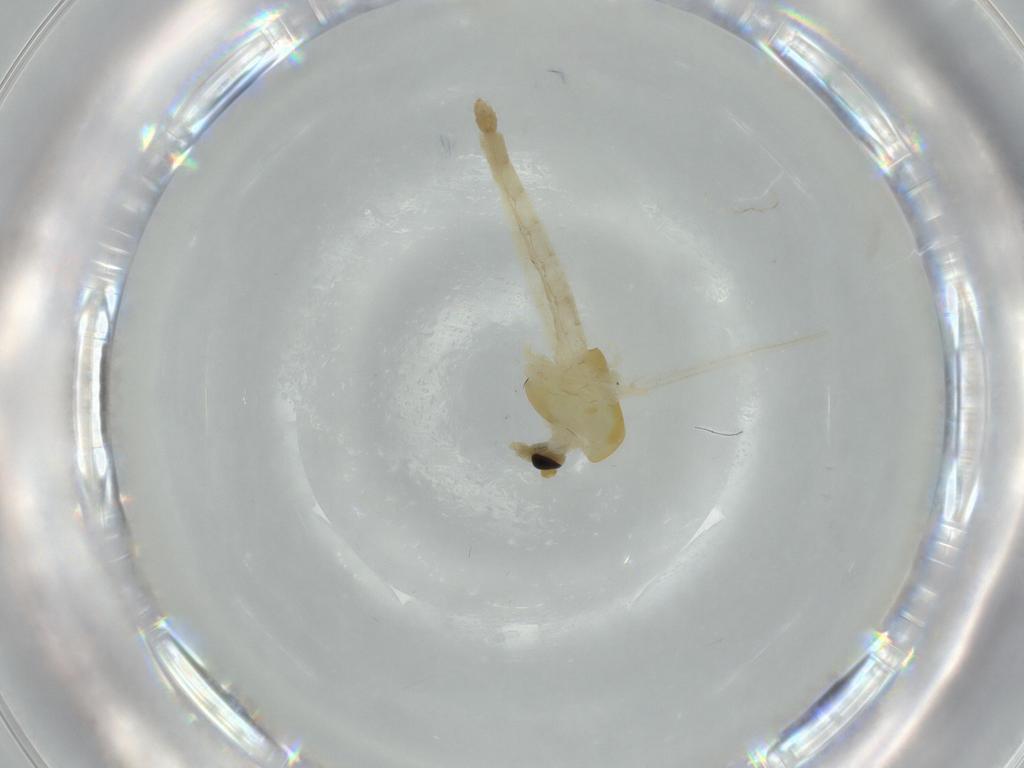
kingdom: Animalia
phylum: Arthropoda
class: Insecta
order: Diptera
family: Chironomidae
